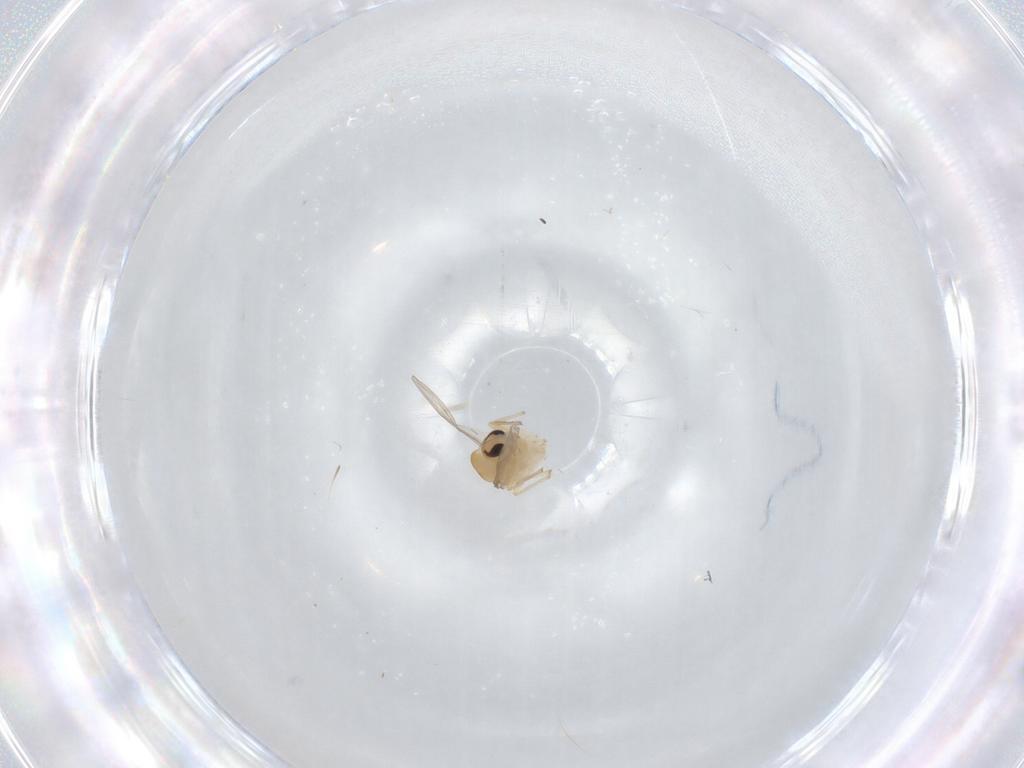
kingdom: Animalia
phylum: Arthropoda
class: Insecta
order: Diptera
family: Chironomidae
